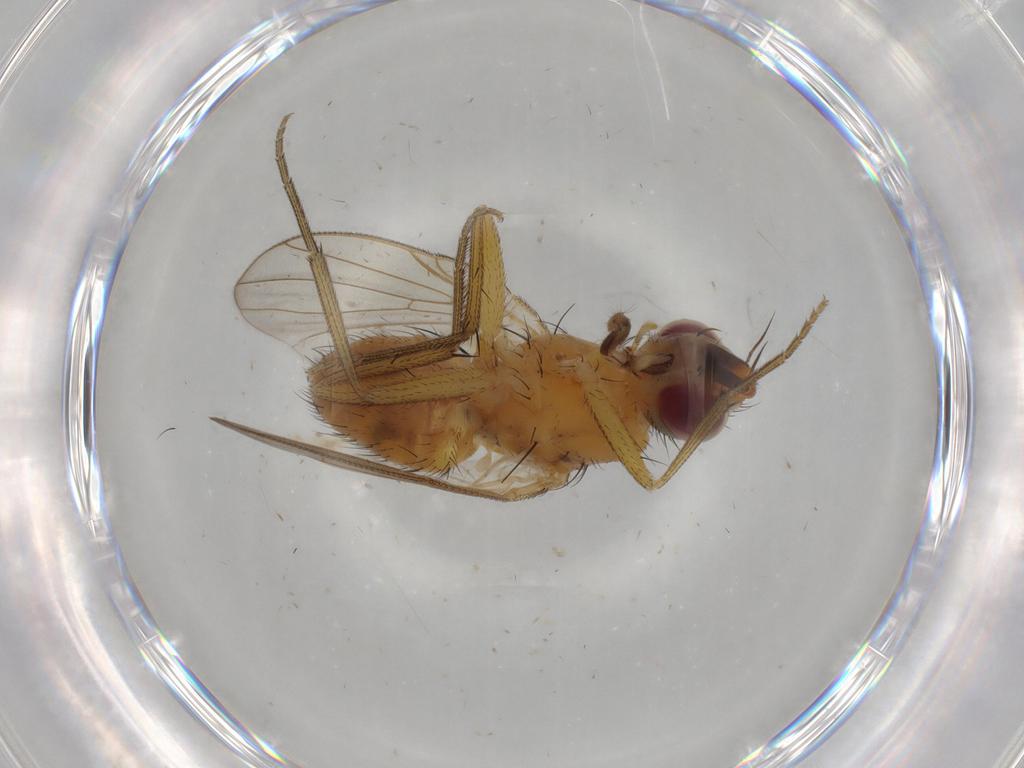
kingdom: Animalia
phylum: Arthropoda
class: Insecta
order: Diptera
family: Muscidae
